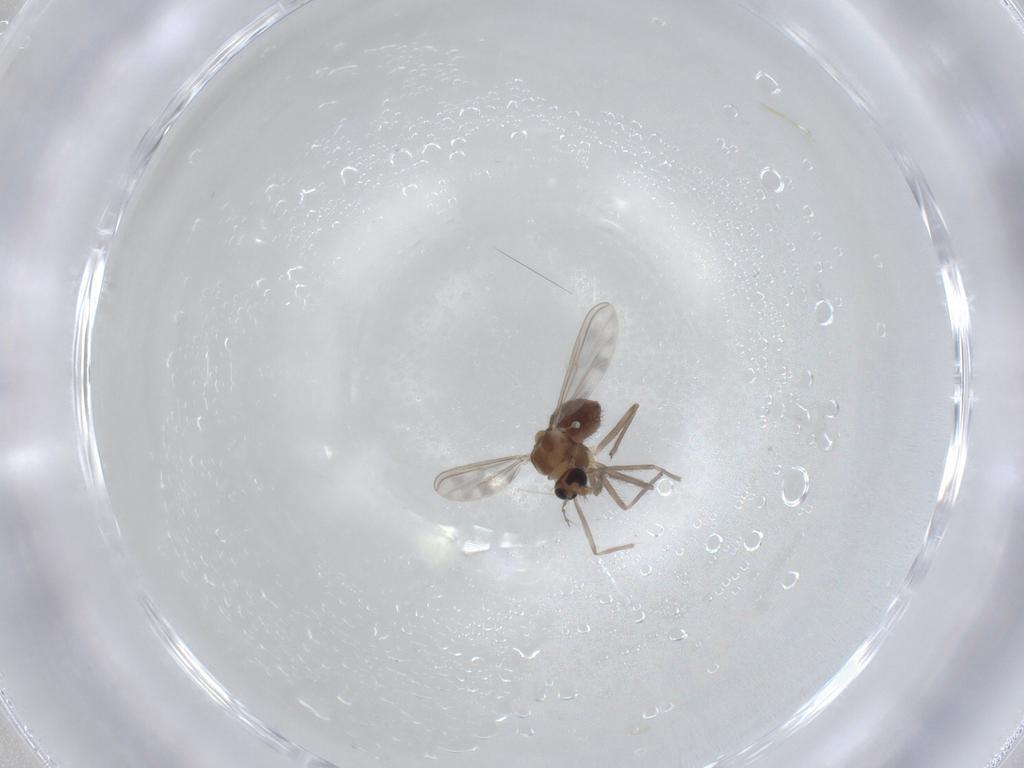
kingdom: Animalia
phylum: Arthropoda
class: Insecta
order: Diptera
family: Chironomidae
